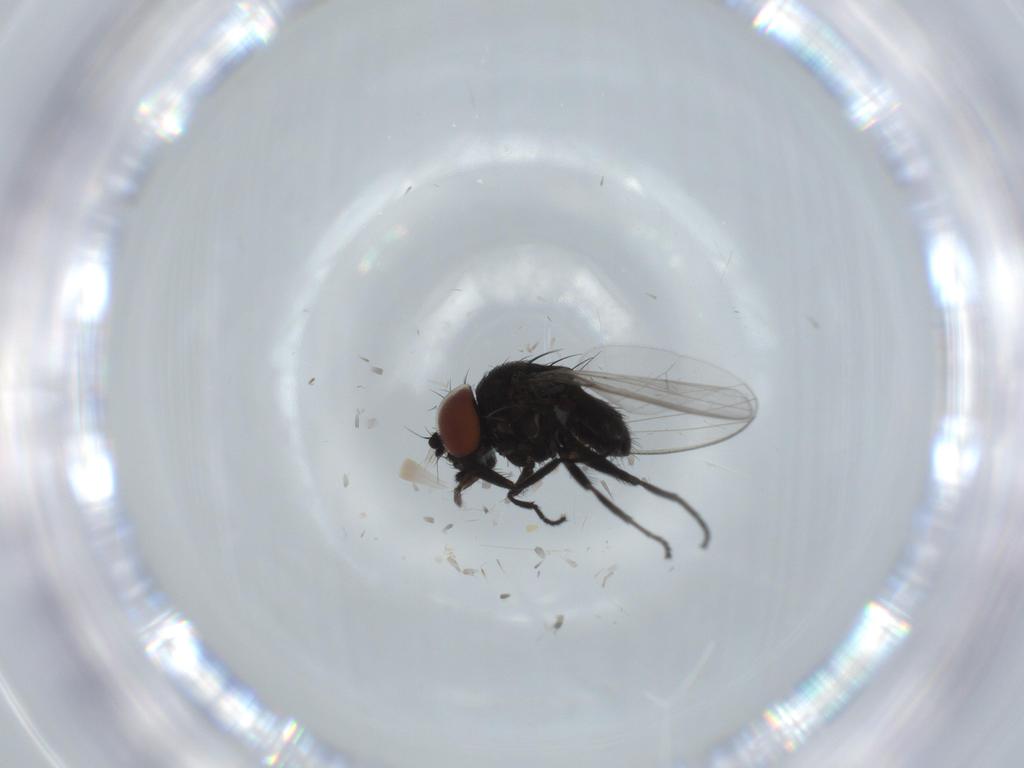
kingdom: Animalia
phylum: Arthropoda
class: Insecta
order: Diptera
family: Milichiidae
